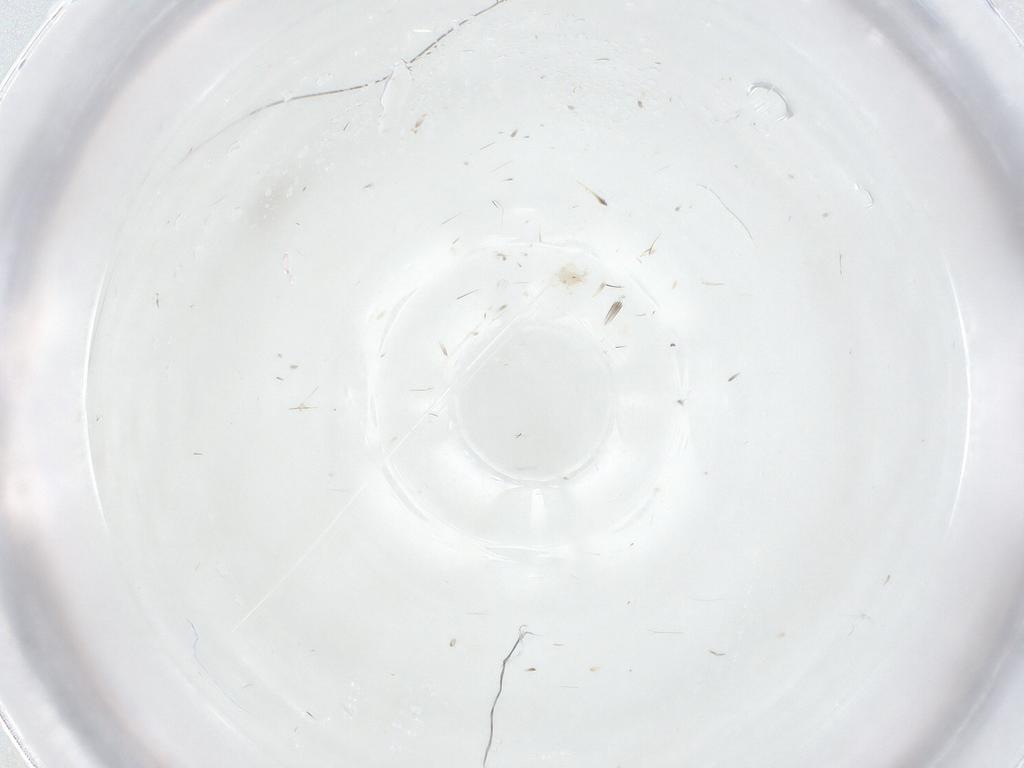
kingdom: Animalia
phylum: Arthropoda
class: Arachnida
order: Trombidiformes
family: Anystidae
